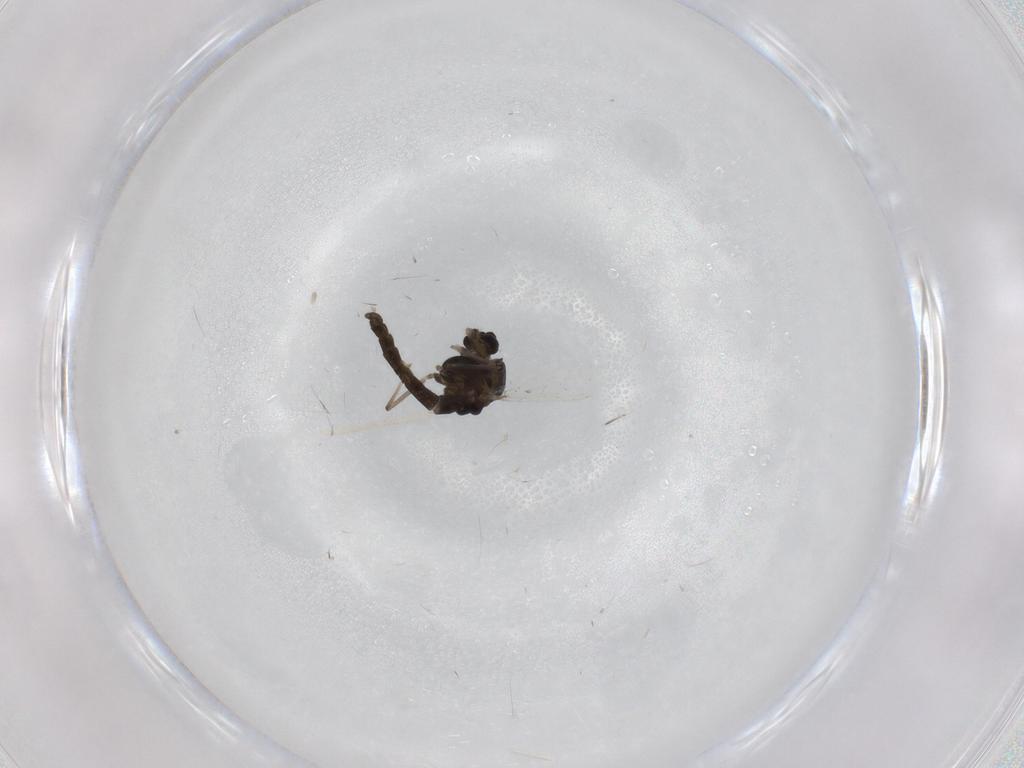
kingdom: Animalia
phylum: Arthropoda
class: Insecta
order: Diptera
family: Chironomidae
